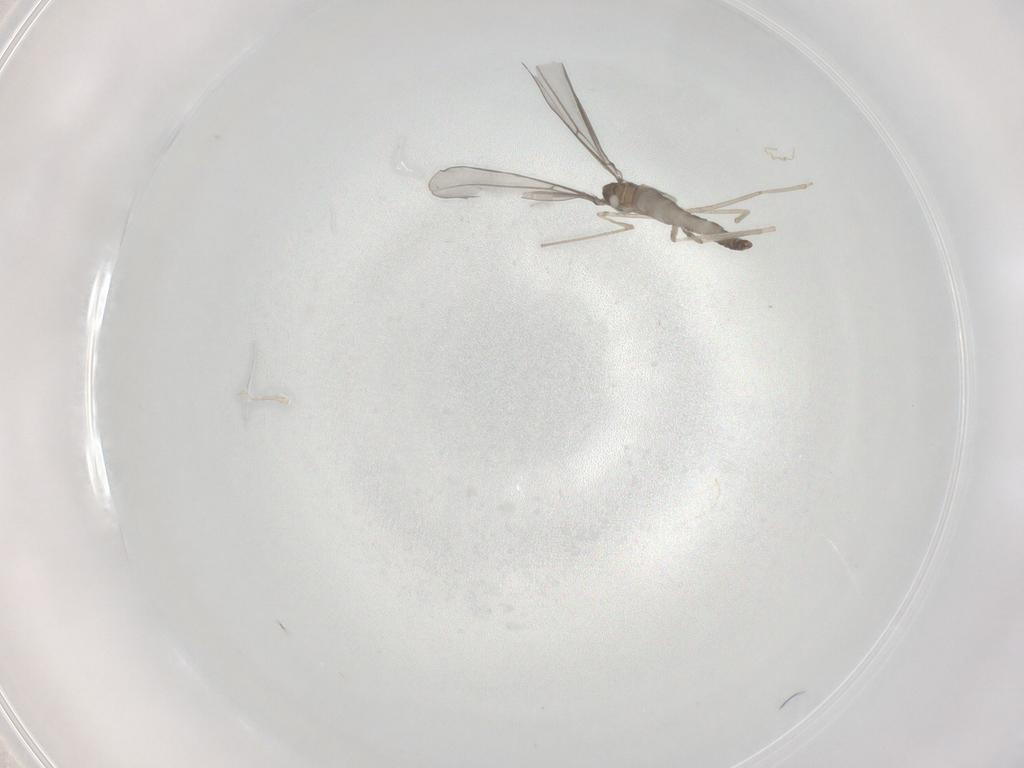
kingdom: Animalia
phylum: Arthropoda
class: Insecta
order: Diptera
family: Cecidomyiidae
